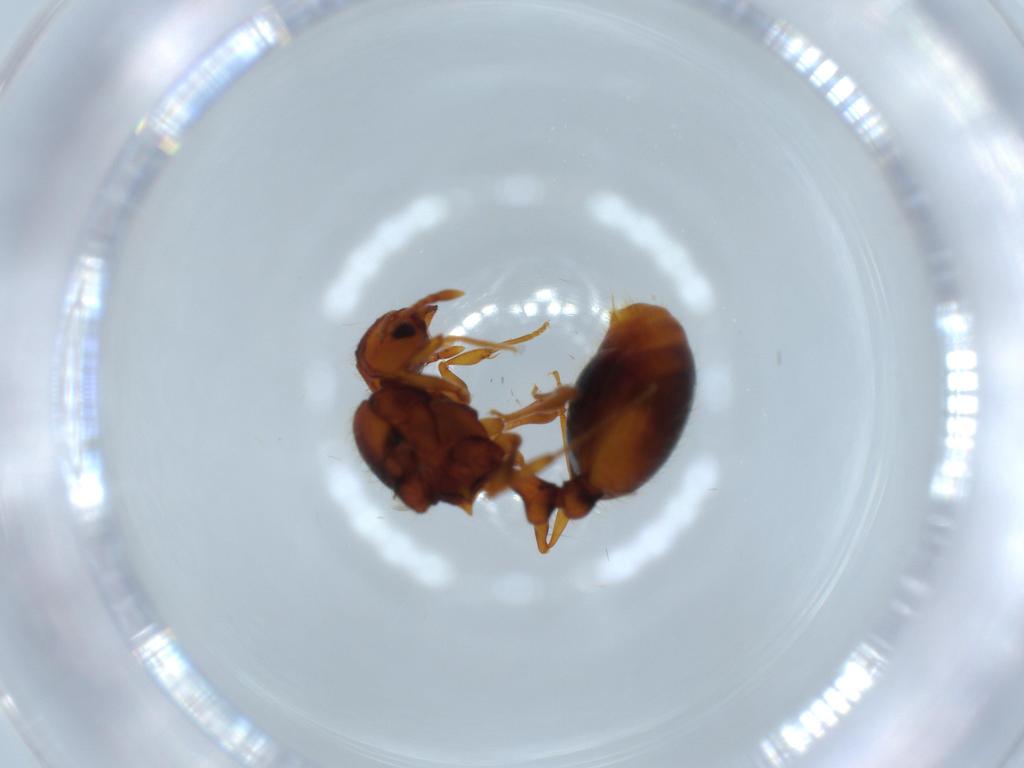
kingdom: Animalia
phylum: Arthropoda
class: Insecta
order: Hymenoptera
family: Formicidae
